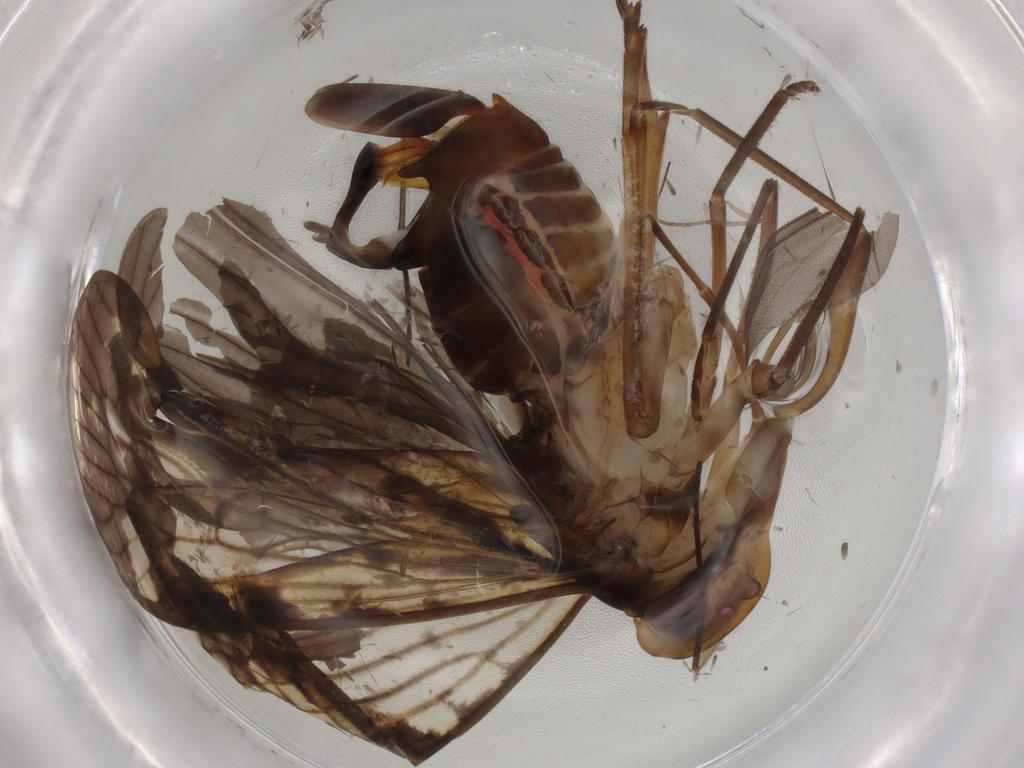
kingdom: Animalia
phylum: Arthropoda
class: Insecta
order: Hemiptera
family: Cixiidae
